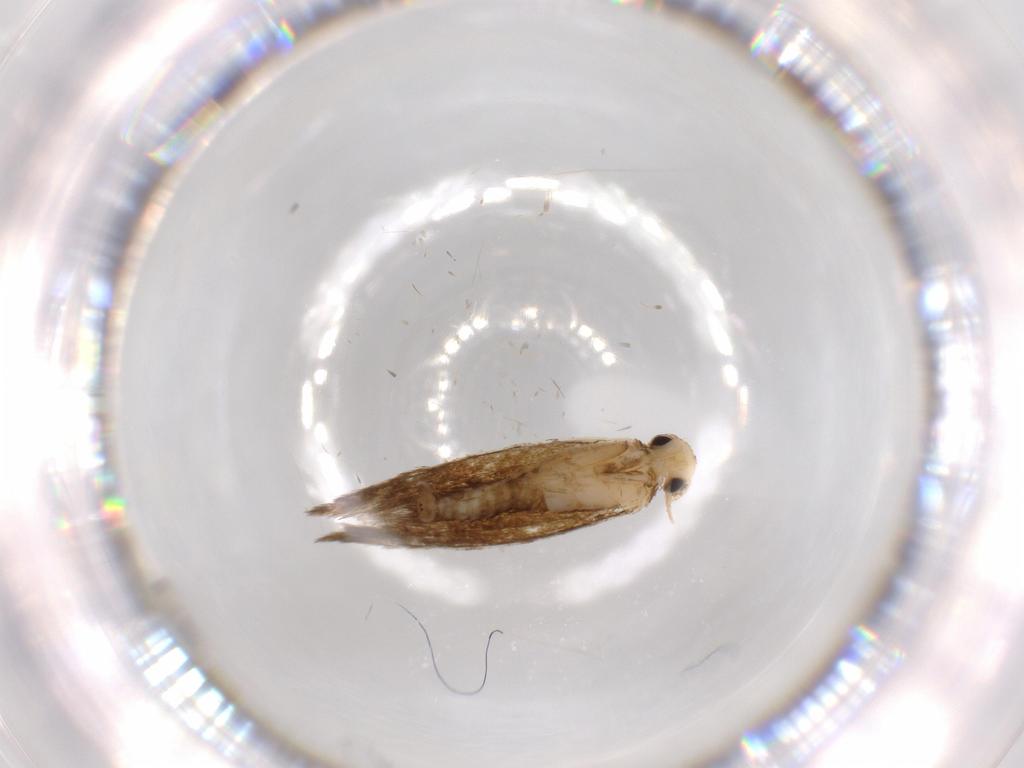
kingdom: Animalia
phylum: Arthropoda
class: Insecta
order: Lepidoptera
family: Tineidae
